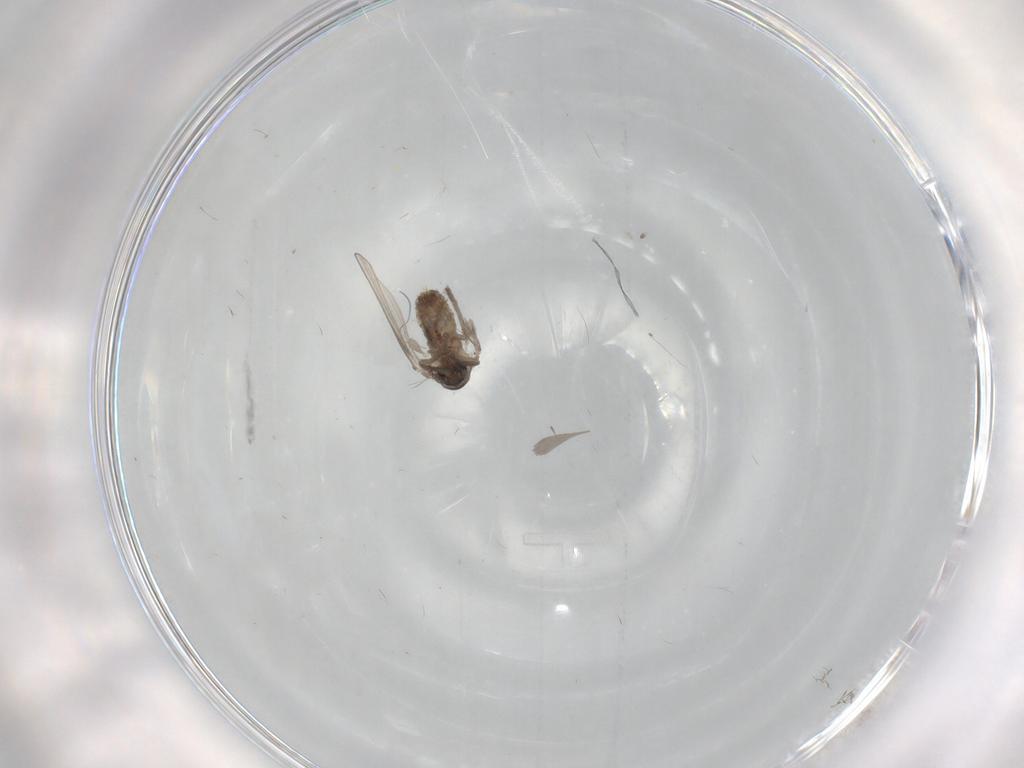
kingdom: Animalia
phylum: Arthropoda
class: Insecta
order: Diptera
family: Psychodidae
